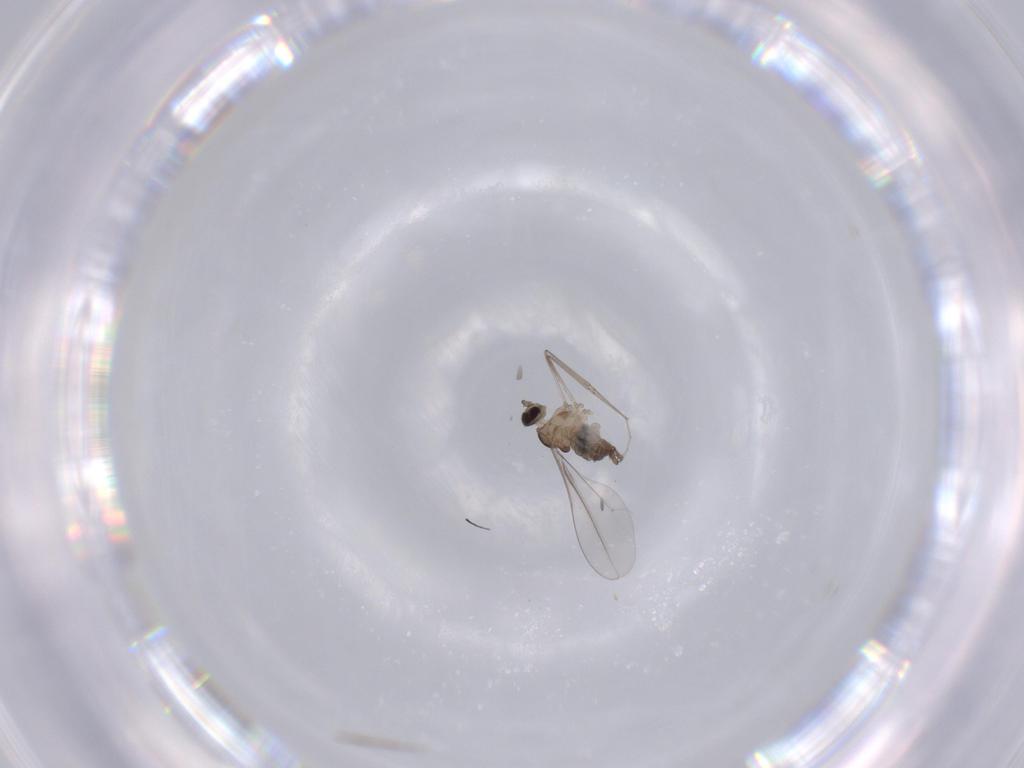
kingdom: Animalia
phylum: Arthropoda
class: Insecta
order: Diptera
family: Cecidomyiidae
